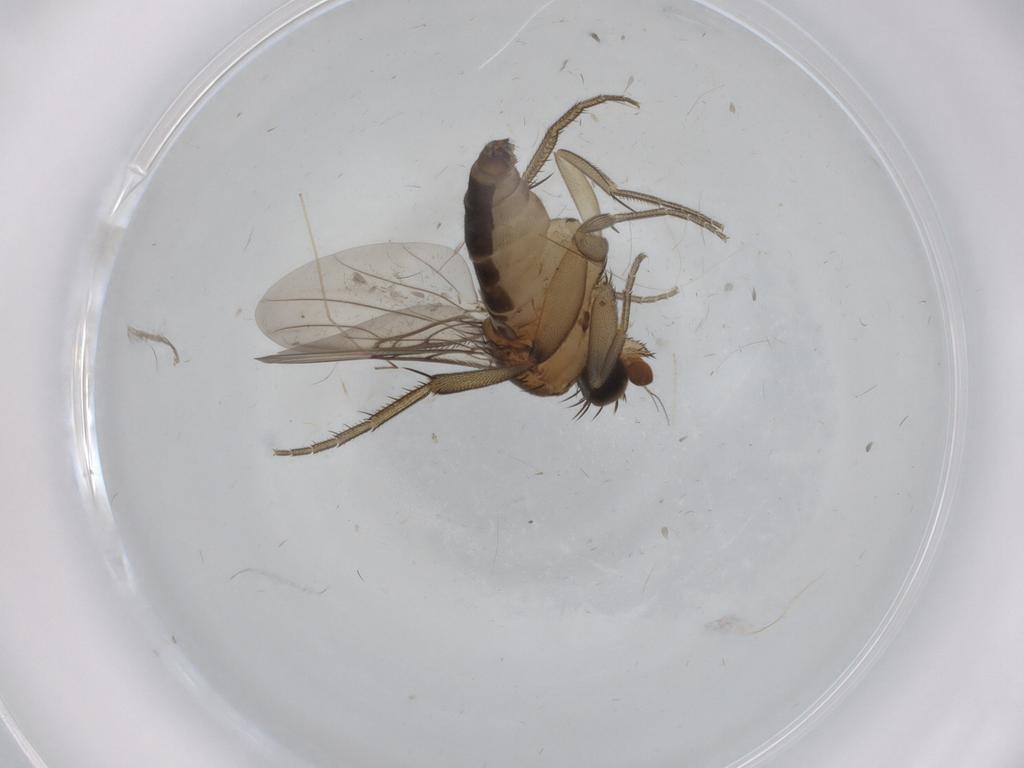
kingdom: Animalia
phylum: Arthropoda
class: Insecta
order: Diptera
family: Phoridae
